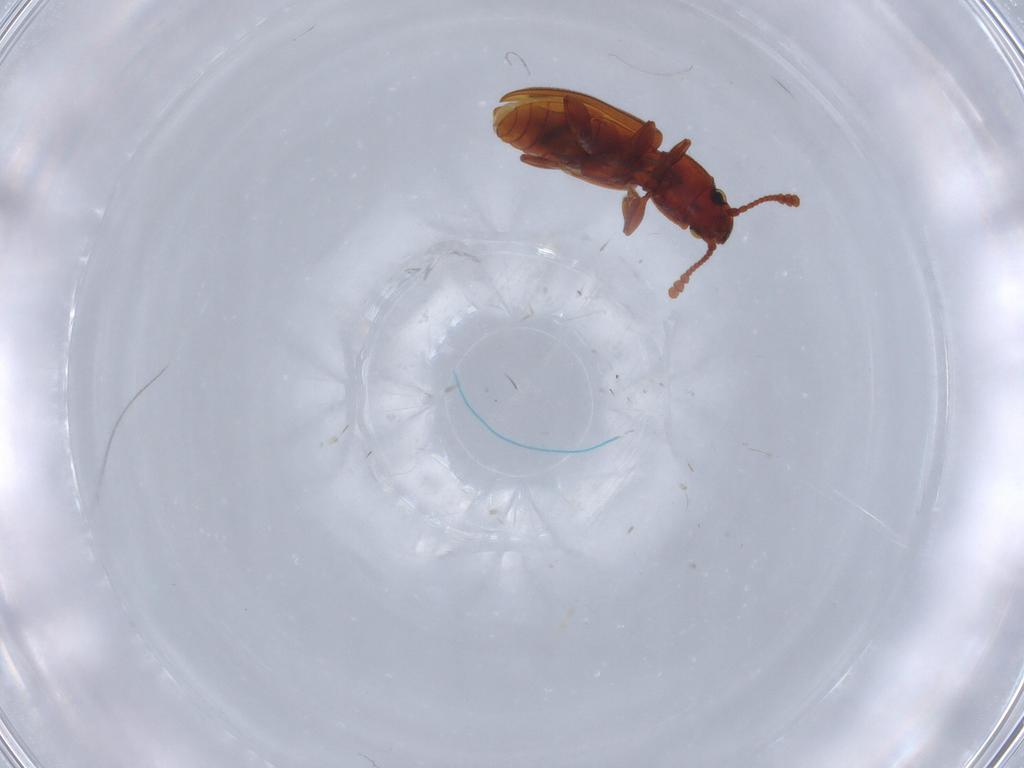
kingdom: Animalia
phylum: Arthropoda
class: Insecta
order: Coleoptera
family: Silvanidae
